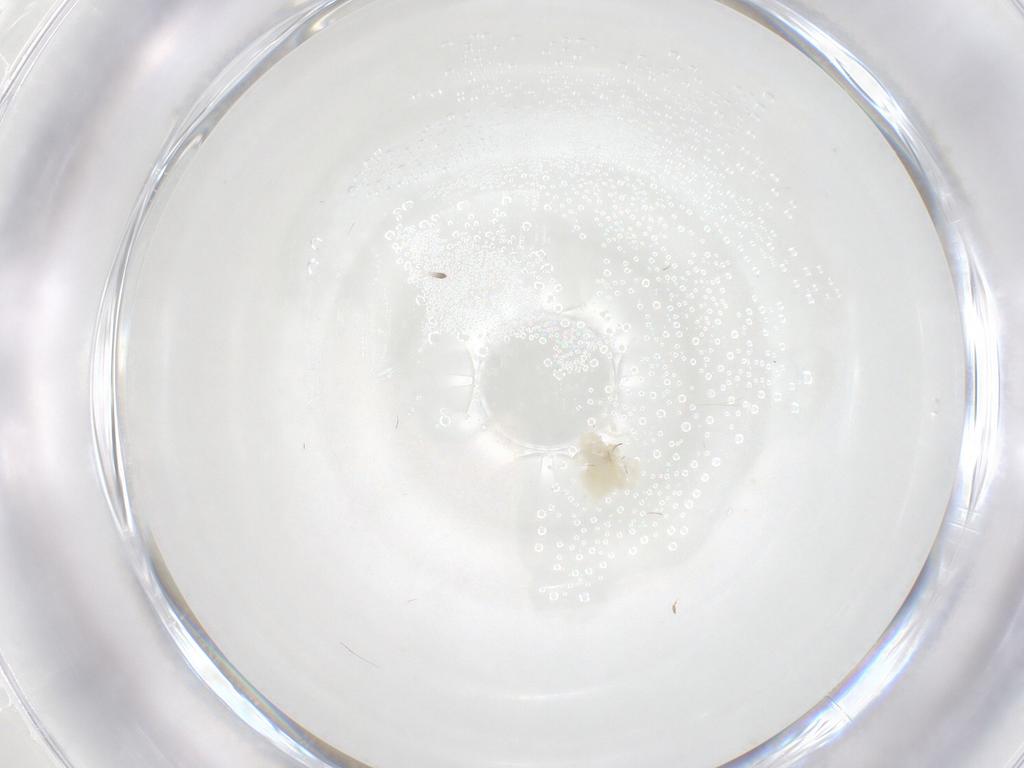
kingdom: Animalia
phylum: Arthropoda
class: Arachnida
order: Trombidiformes
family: Anystidae
